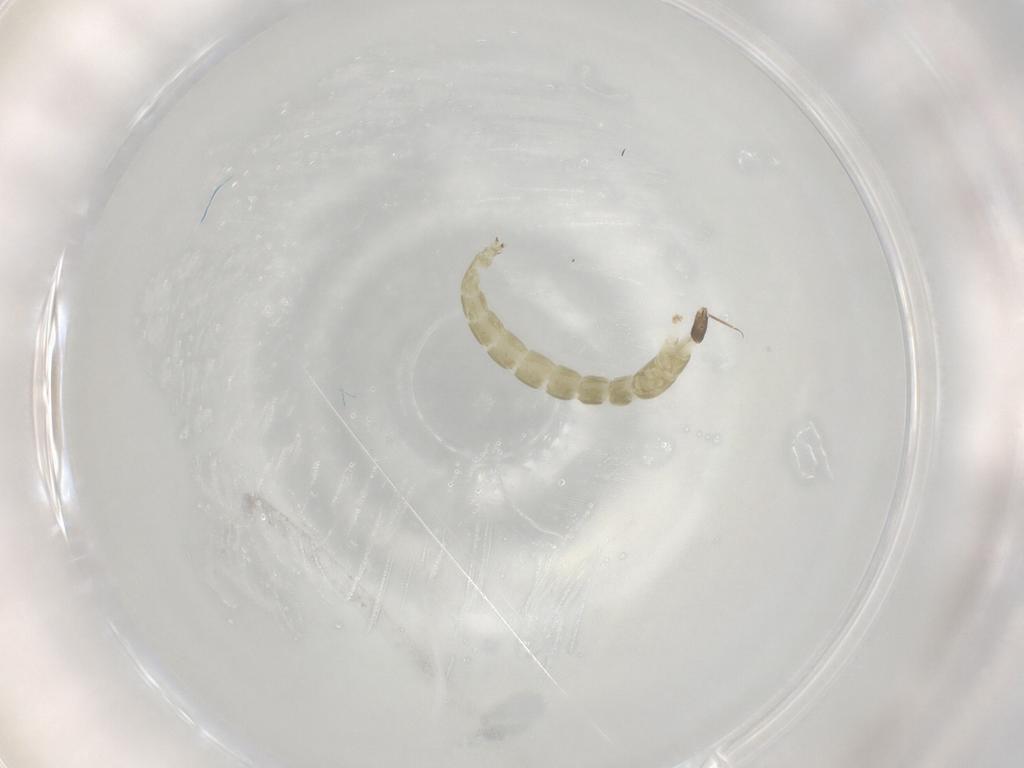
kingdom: Animalia
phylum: Arthropoda
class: Insecta
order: Diptera
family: Chironomidae
